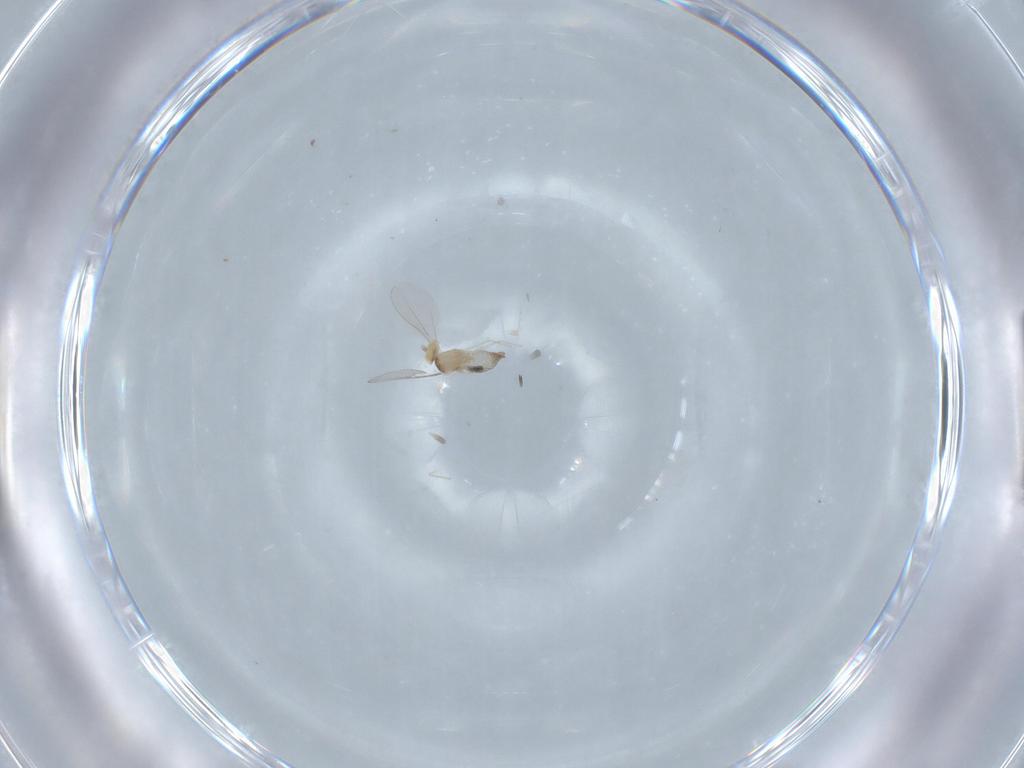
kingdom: Animalia
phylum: Arthropoda
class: Insecta
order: Diptera
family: Cecidomyiidae
